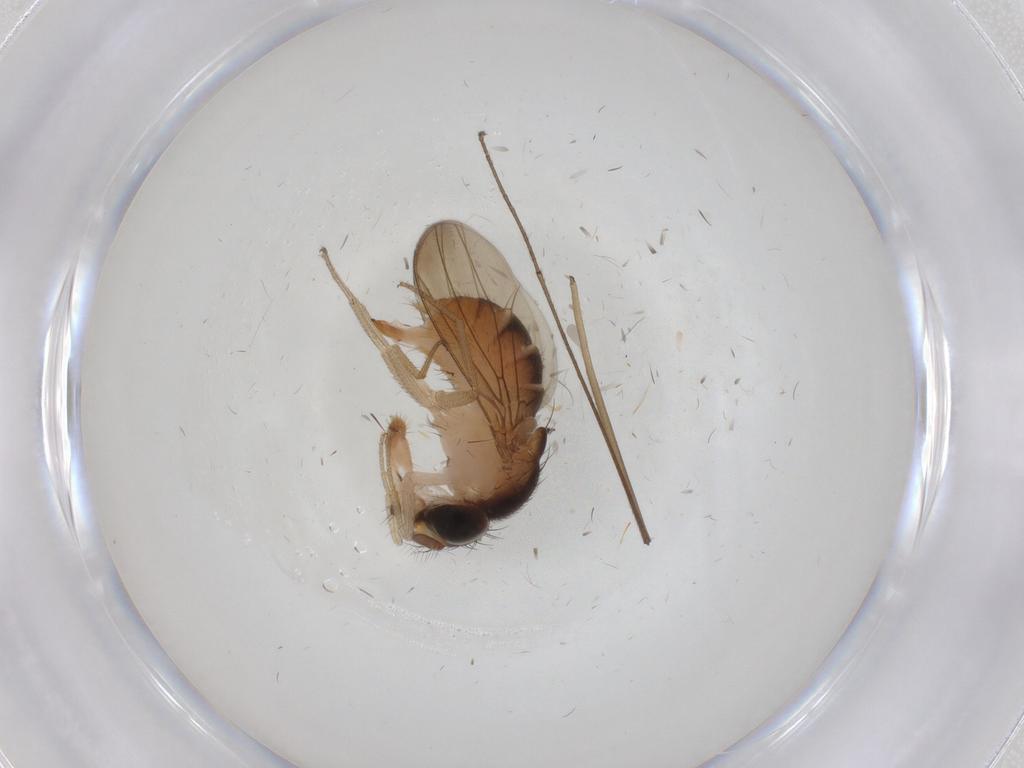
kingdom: Animalia
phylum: Arthropoda
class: Insecta
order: Diptera
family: Drosophilidae
